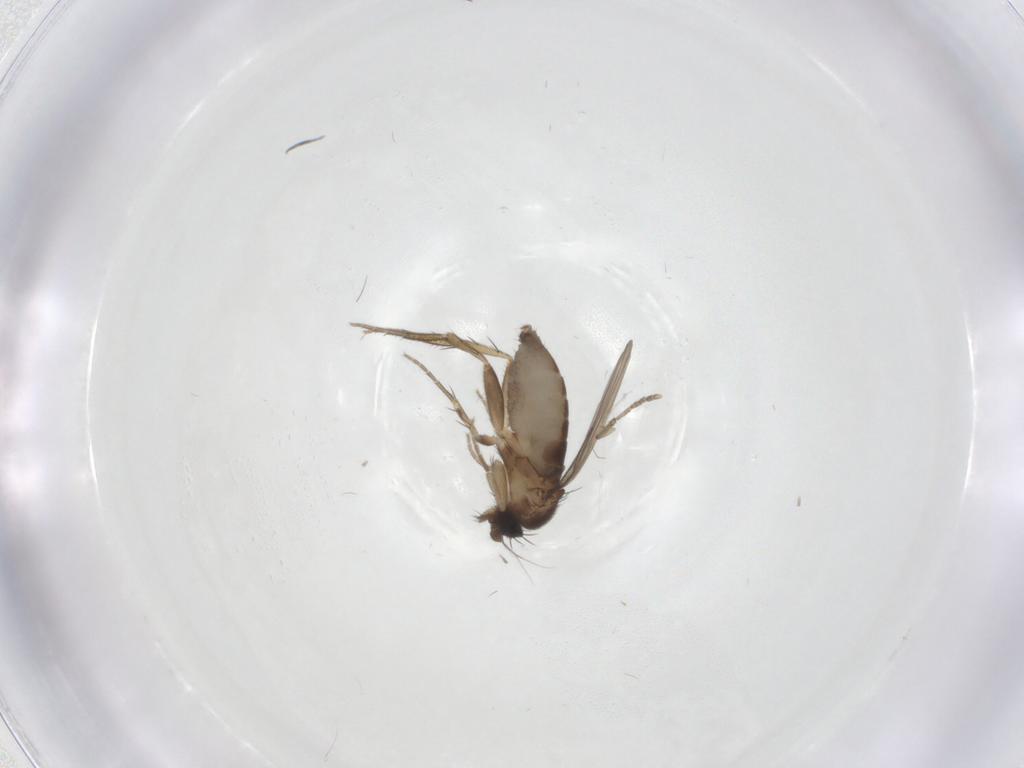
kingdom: Animalia
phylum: Arthropoda
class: Insecta
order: Diptera
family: Phoridae
